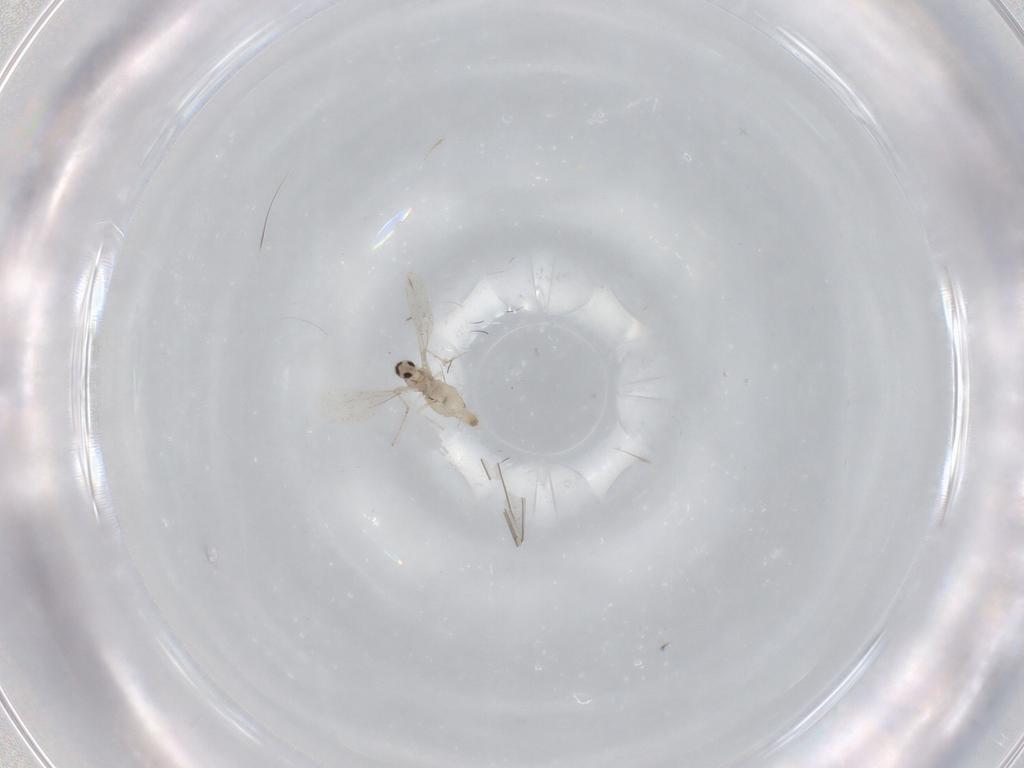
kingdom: Animalia
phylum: Arthropoda
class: Insecta
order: Diptera
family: Cecidomyiidae
